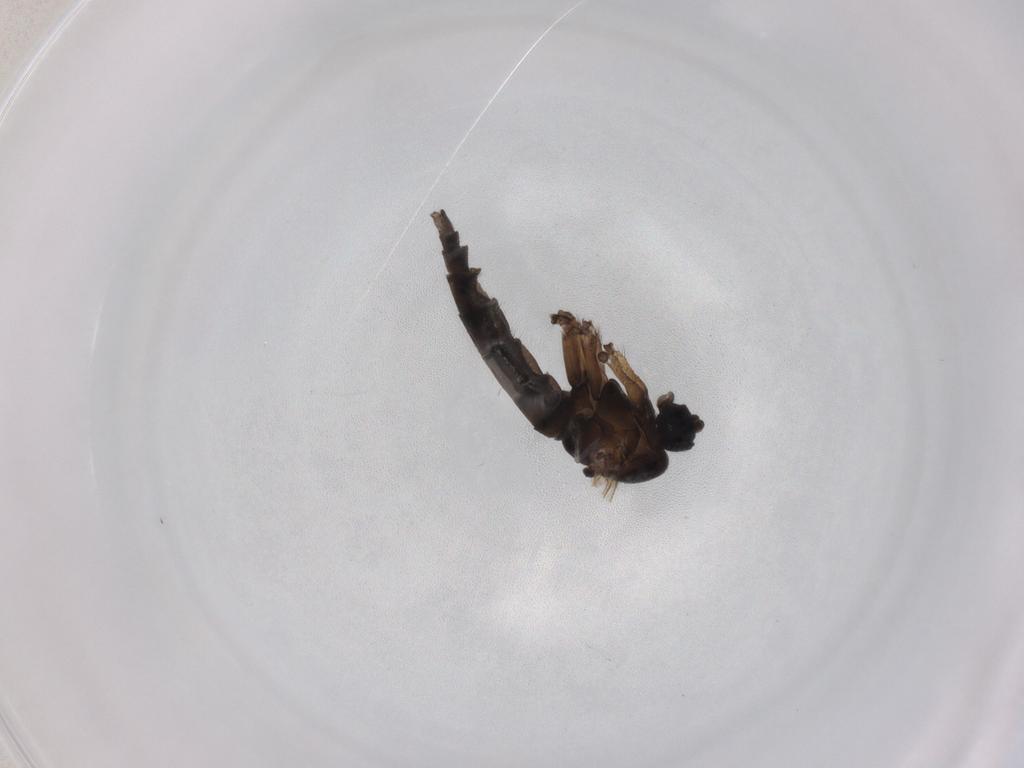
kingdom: Animalia
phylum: Arthropoda
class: Insecta
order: Diptera
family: Sciaridae
